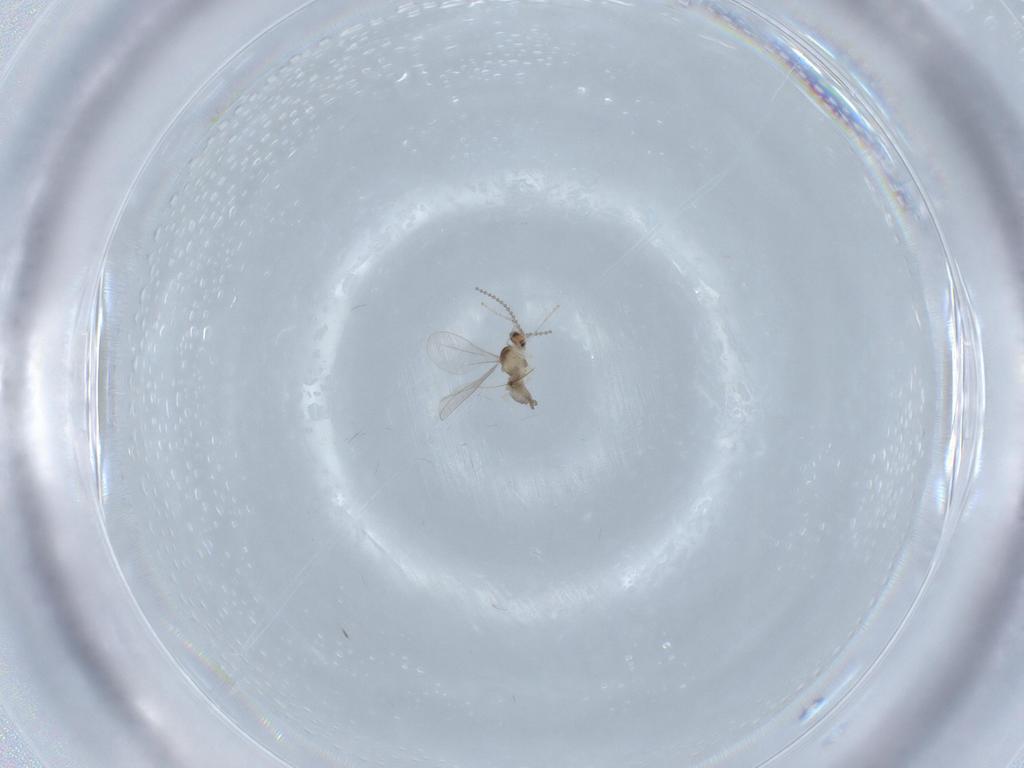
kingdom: Animalia
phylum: Arthropoda
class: Insecta
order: Diptera
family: Cecidomyiidae
